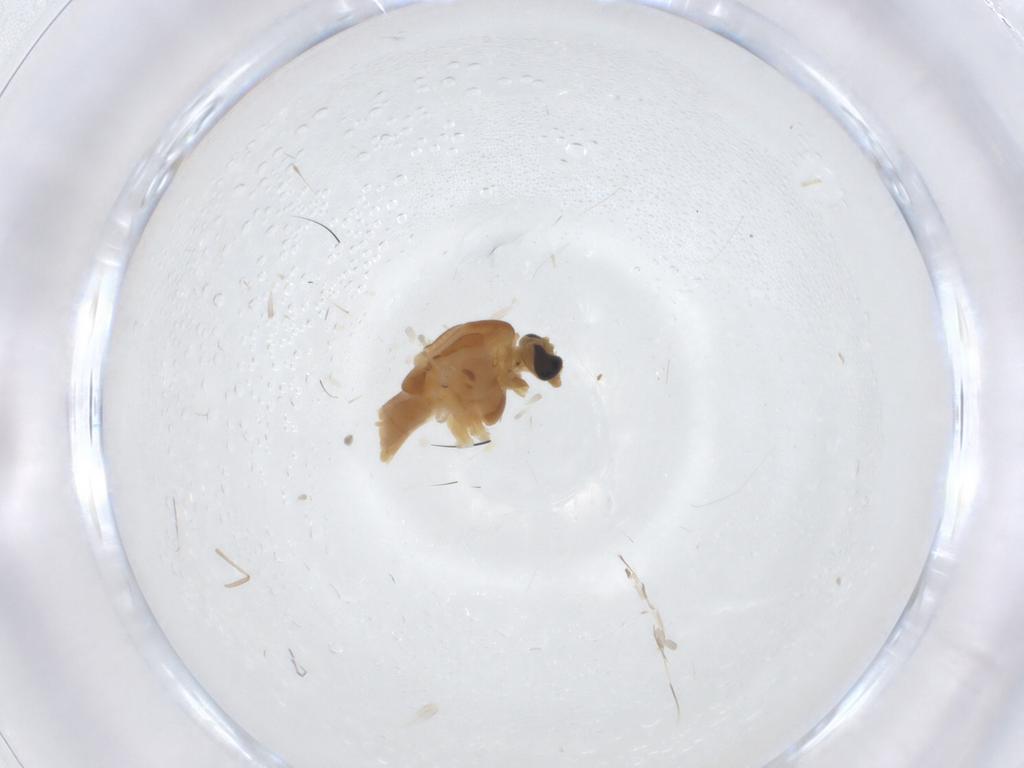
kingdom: Animalia
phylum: Arthropoda
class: Insecta
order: Diptera
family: Chironomidae
